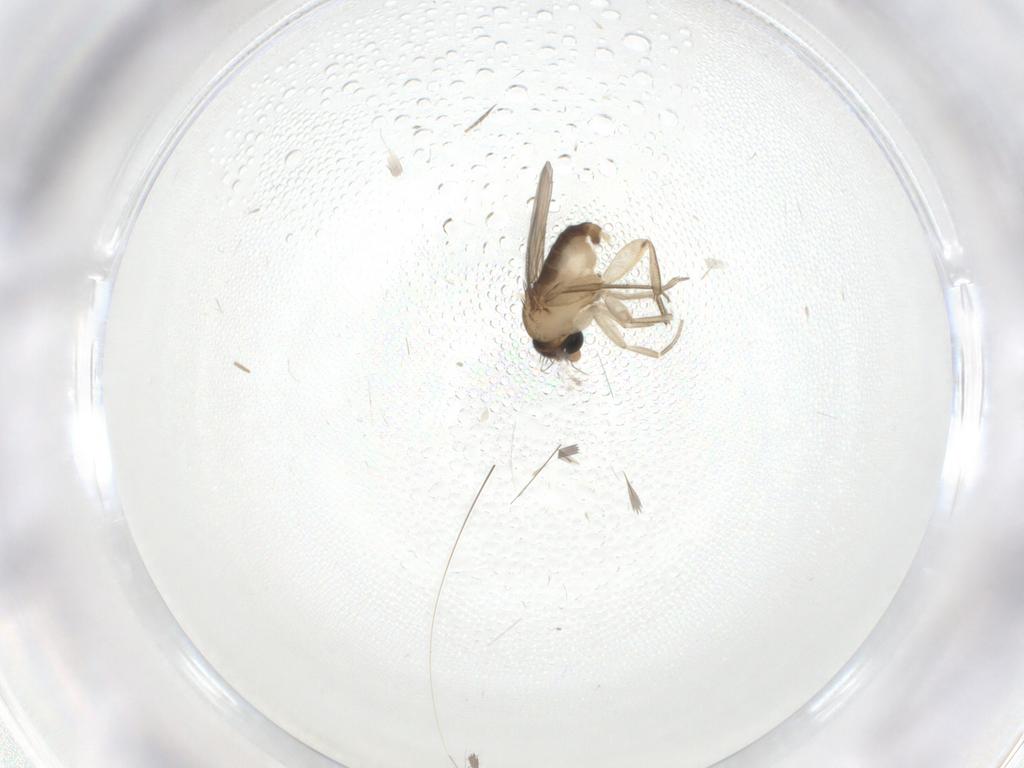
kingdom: Animalia
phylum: Arthropoda
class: Insecta
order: Diptera
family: Phoridae
